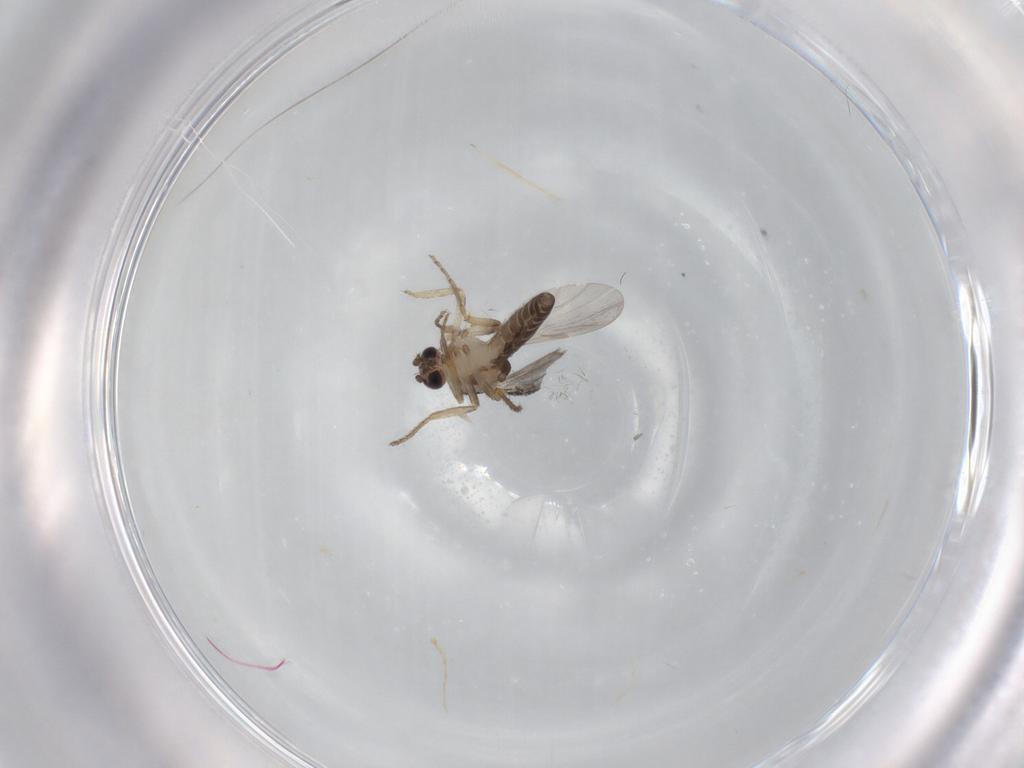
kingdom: Animalia
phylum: Arthropoda
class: Insecta
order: Diptera
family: Ceratopogonidae
